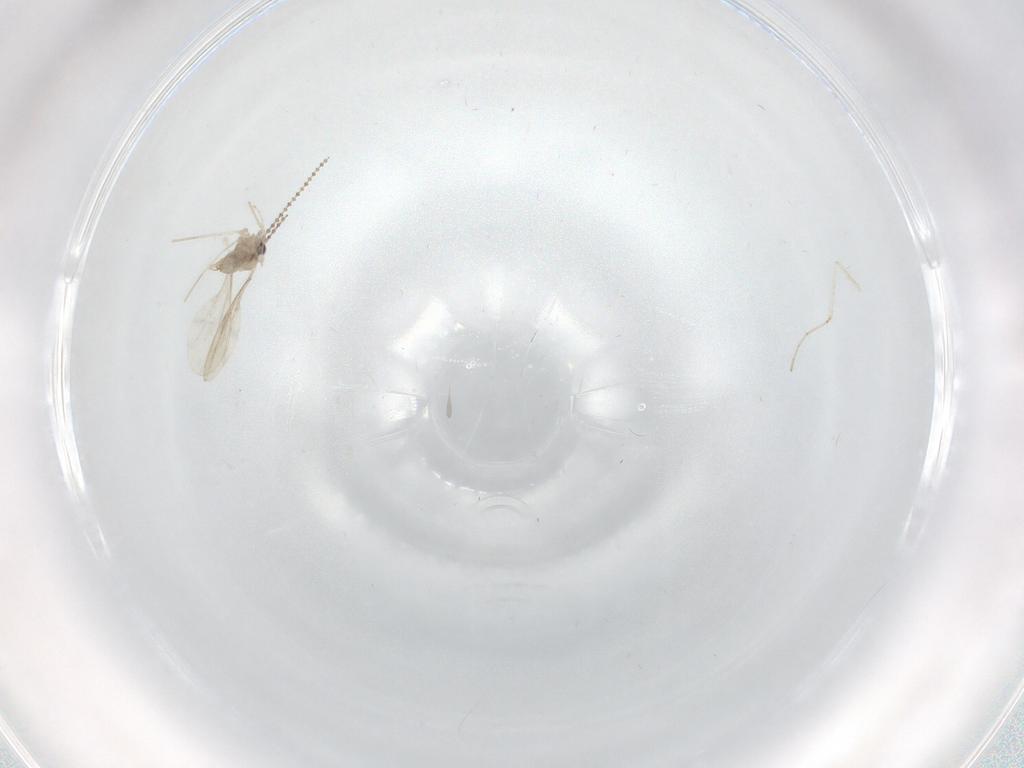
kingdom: Animalia
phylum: Arthropoda
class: Insecta
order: Diptera
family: Cecidomyiidae
